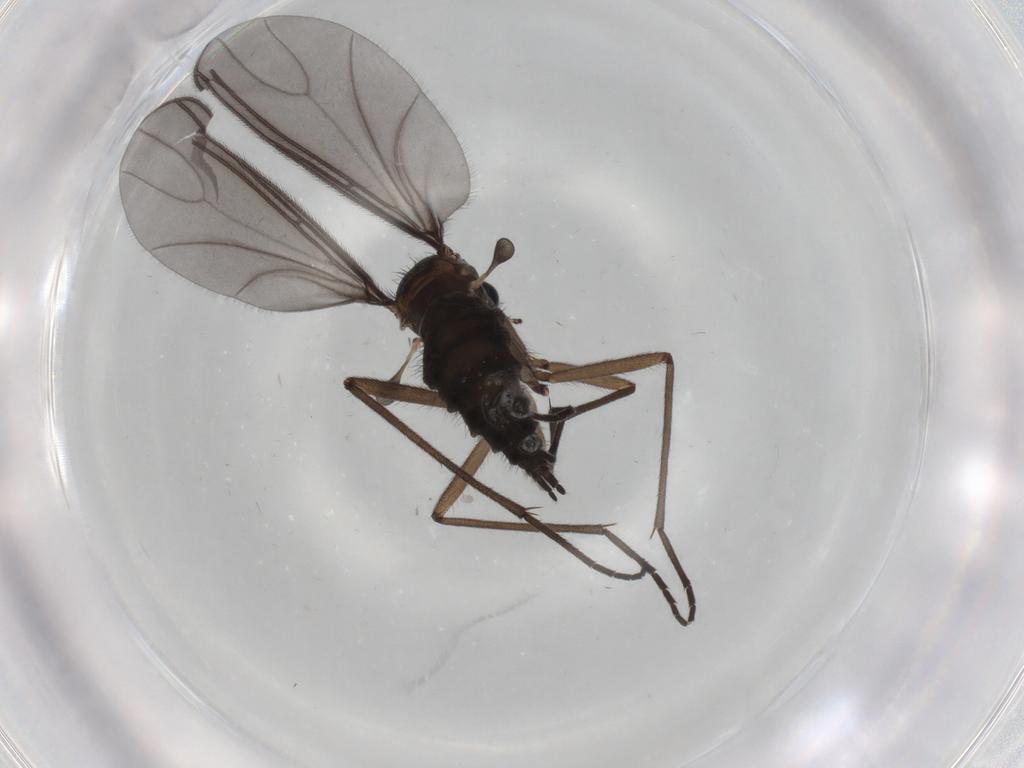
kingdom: Animalia
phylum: Arthropoda
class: Insecta
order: Diptera
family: Sciaridae
